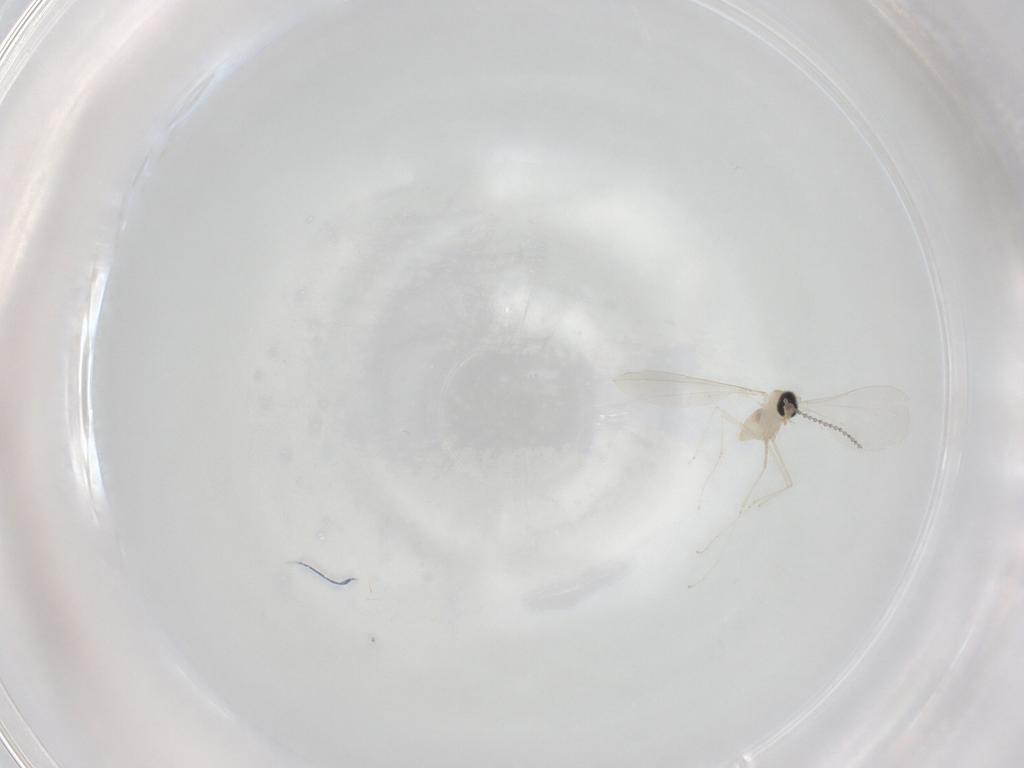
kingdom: Animalia
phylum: Arthropoda
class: Insecta
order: Diptera
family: Cecidomyiidae
